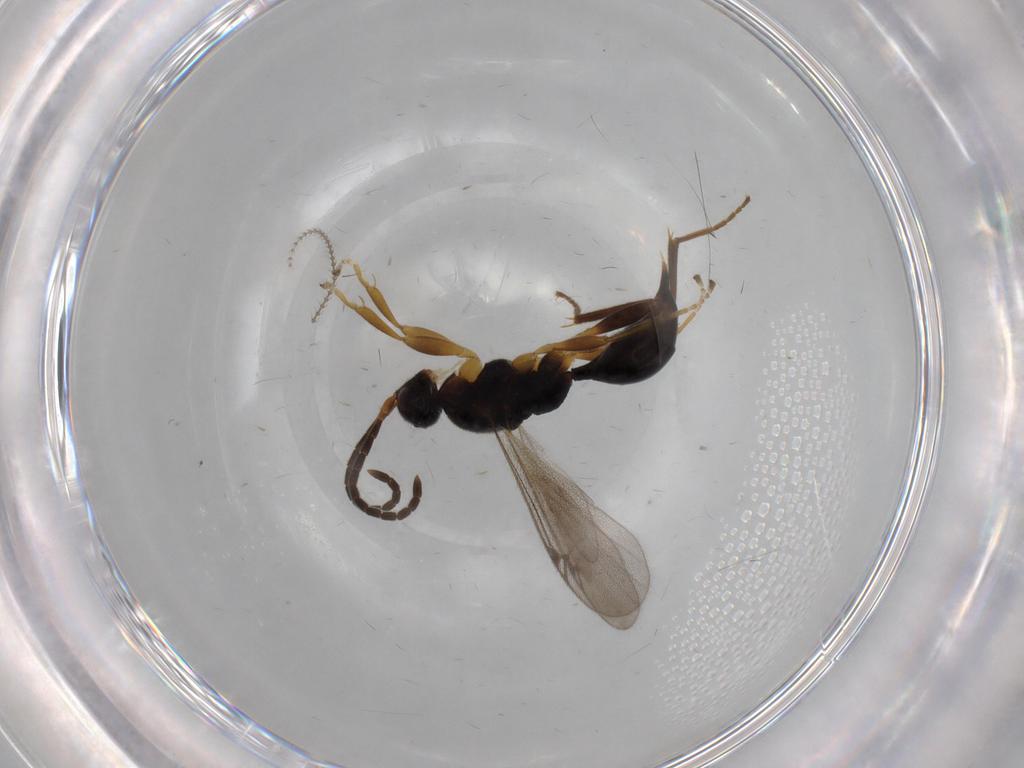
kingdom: Animalia
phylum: Arthropoda
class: Insecta
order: Hymenoptera
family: Proctotrupidae
